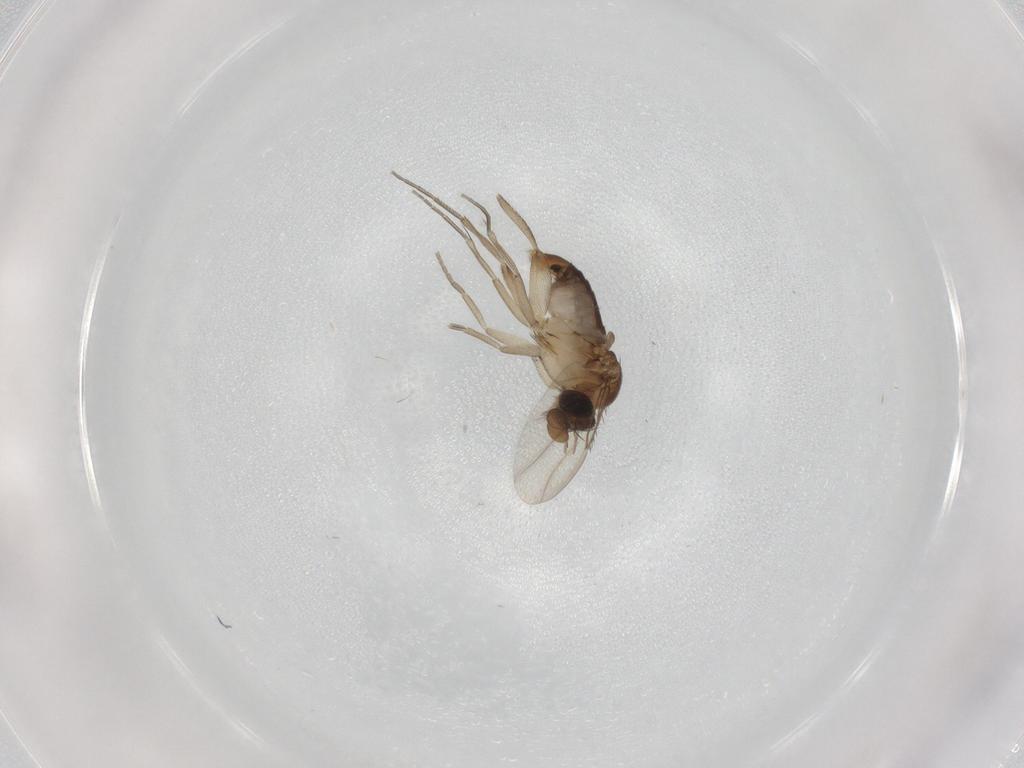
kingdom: Animalia
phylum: Arthropoda
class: Insecta
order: Diptera
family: Phoridae
